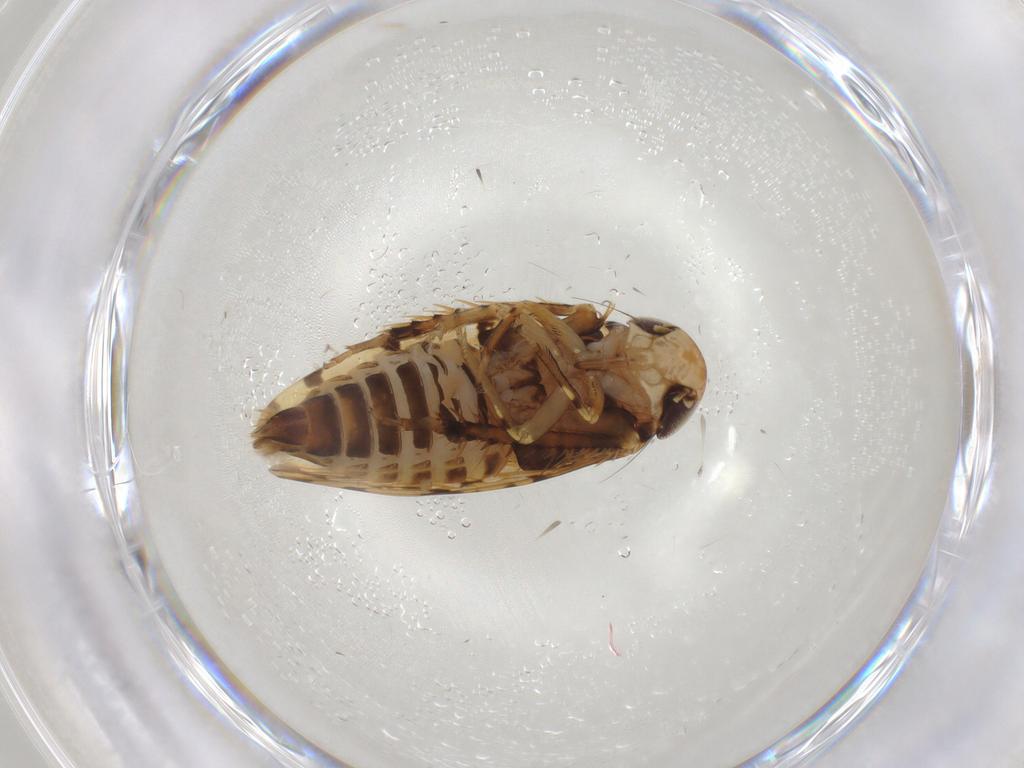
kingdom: Animalia
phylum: Arthropoda
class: Insecta
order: Hemiptera
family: Cicadellidae
